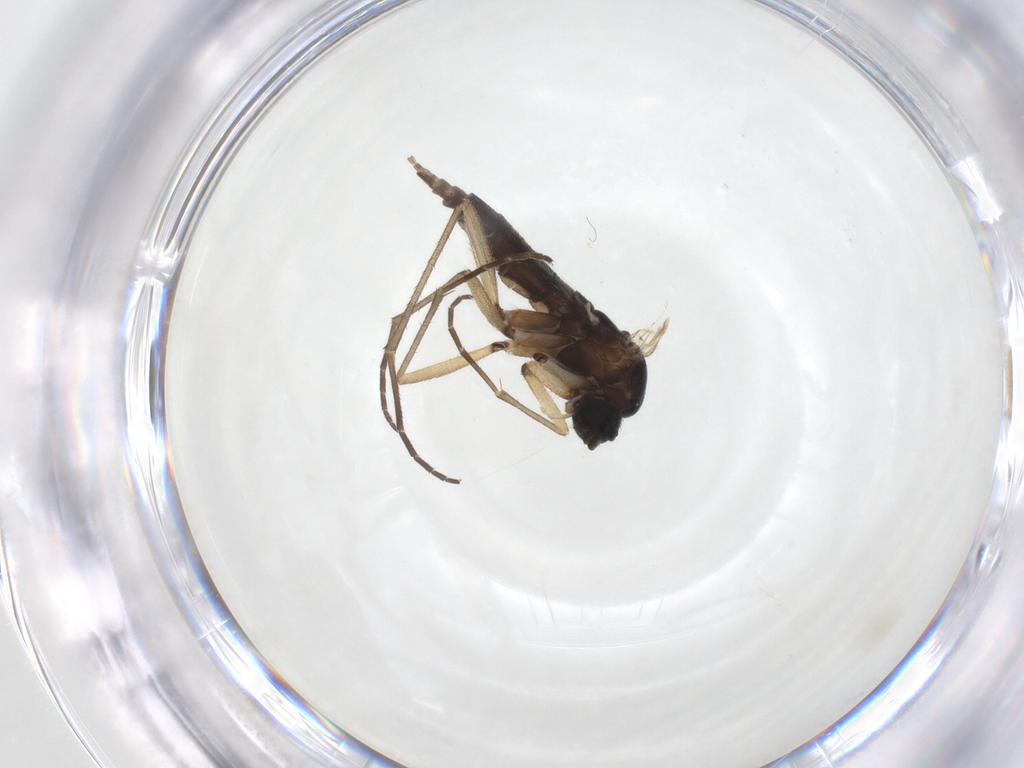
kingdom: Animalia
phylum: Arthropoda
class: Insecta
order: Diptera
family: Sciaridae
